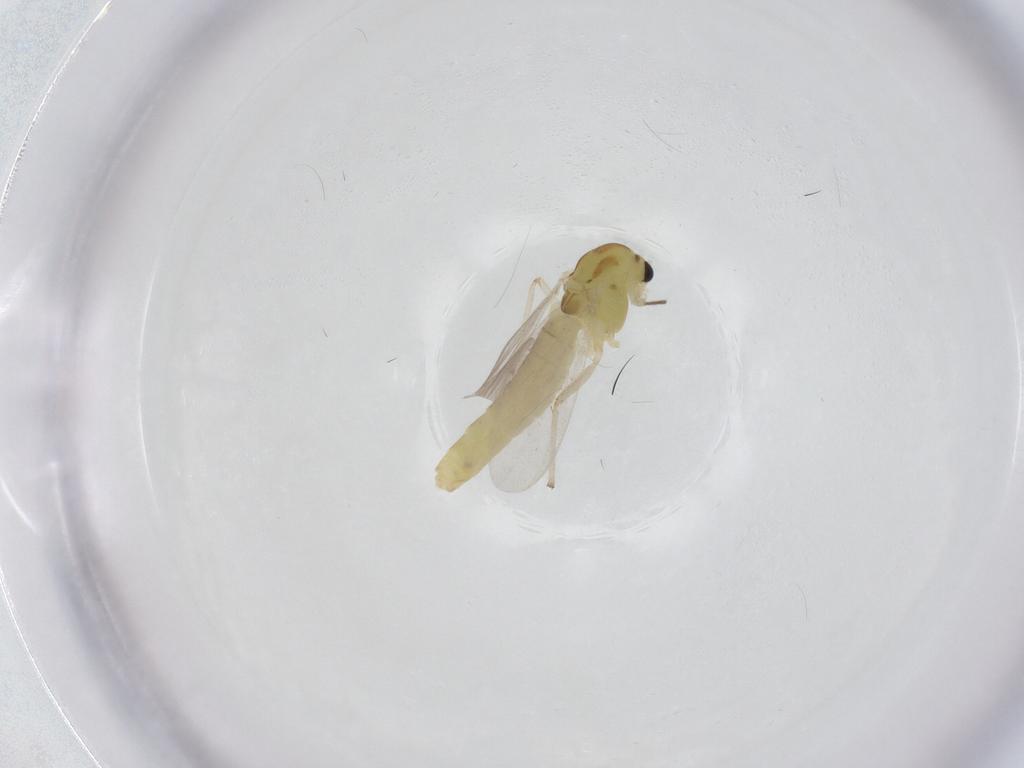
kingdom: Animalia
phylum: Arthropoda
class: Insecta
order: Diptera
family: Chironomidae
